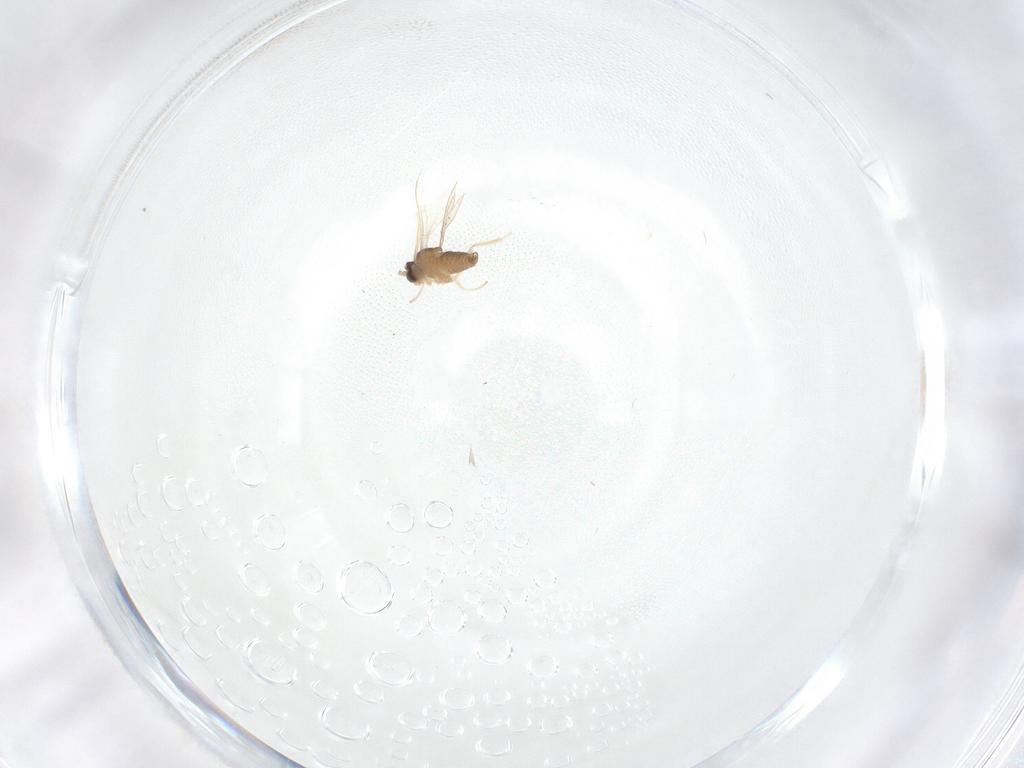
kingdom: Animalia
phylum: Arthropoda
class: Insecta
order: Diptera
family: Cecidomyiidae
